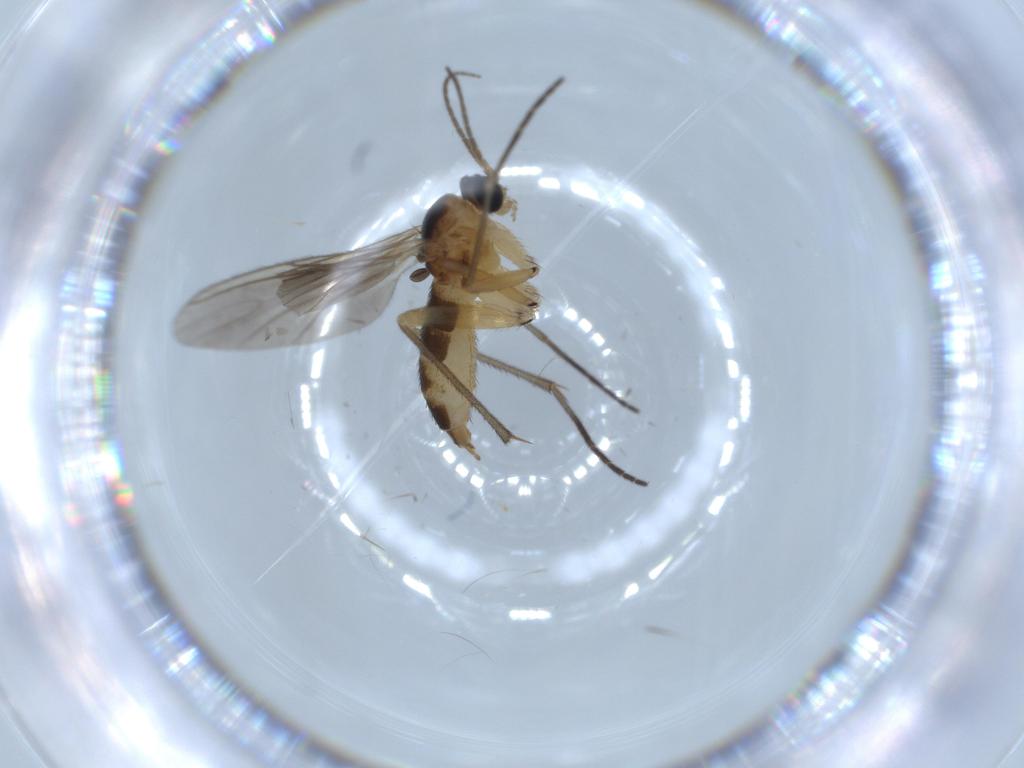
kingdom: Animalia
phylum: Arthropoda
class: Insecta
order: Diptera
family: Sciaridae
